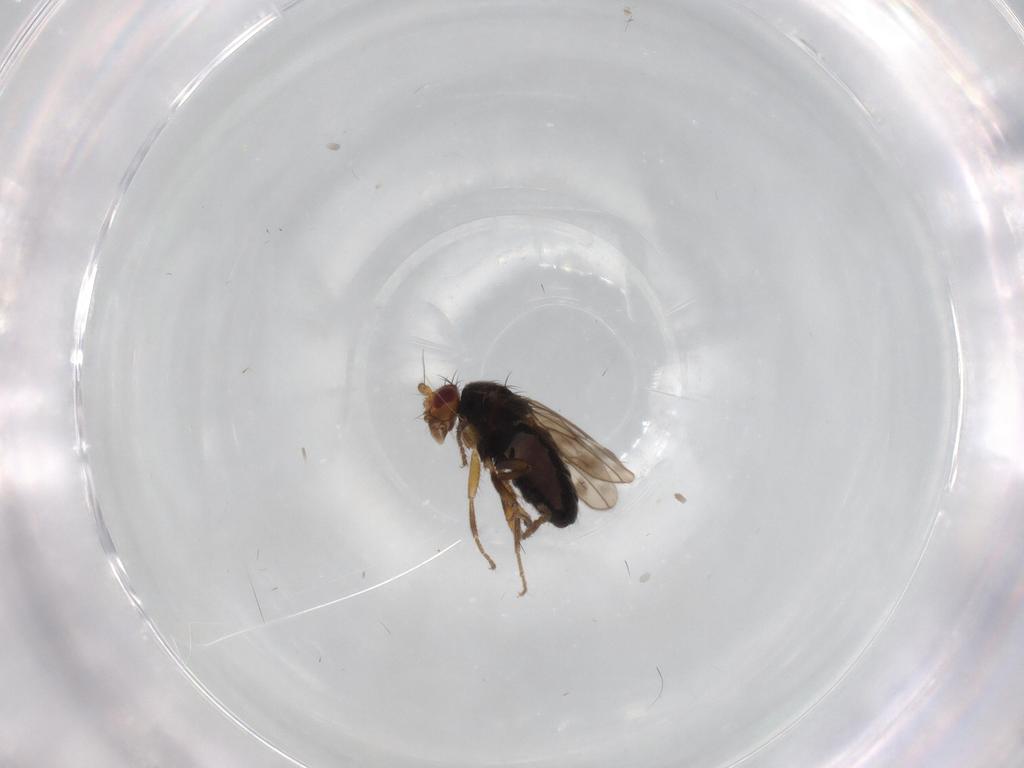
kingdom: Animalia
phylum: Arthropoda
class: Insecta
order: Diptera
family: Sphaeroceridae
